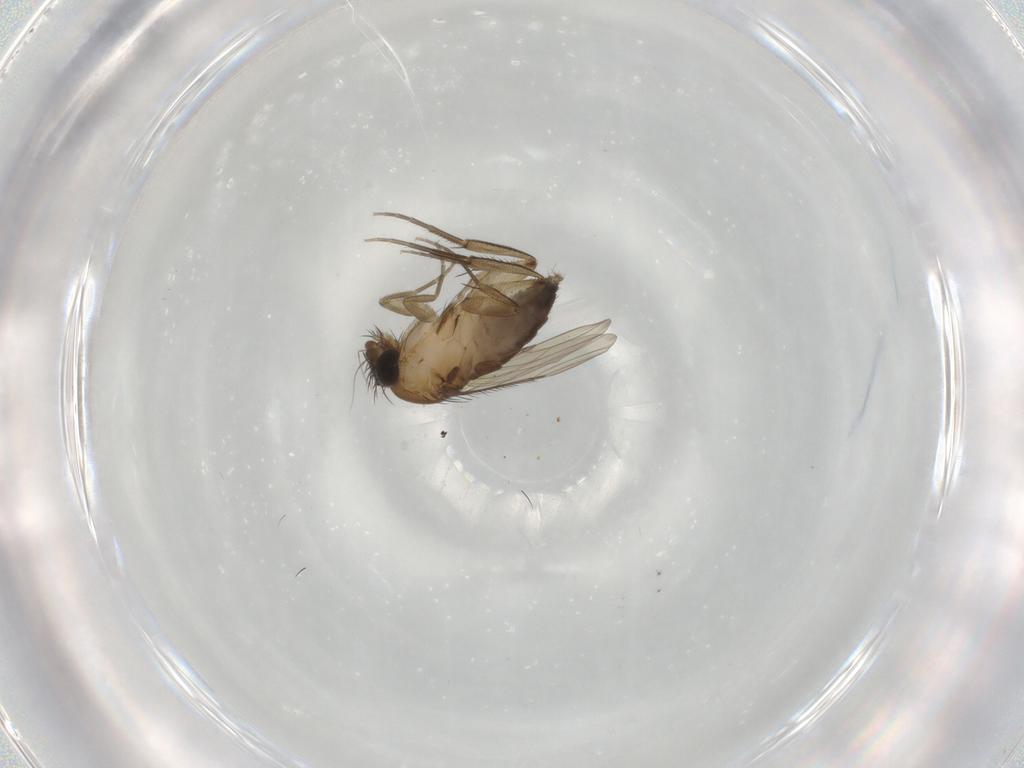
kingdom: Animalia
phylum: Arthropoda
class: Insecta
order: Diptera
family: Phoridae
